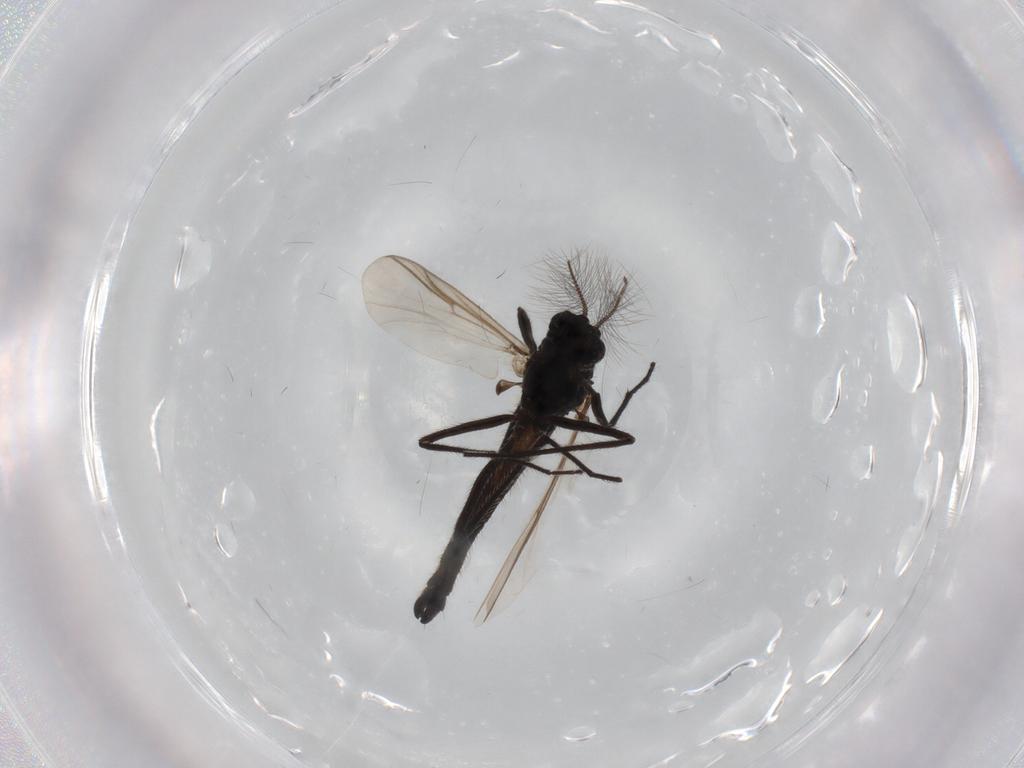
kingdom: Animalia
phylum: Arthropoda
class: Insecta
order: Diptera
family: Chironomidae
